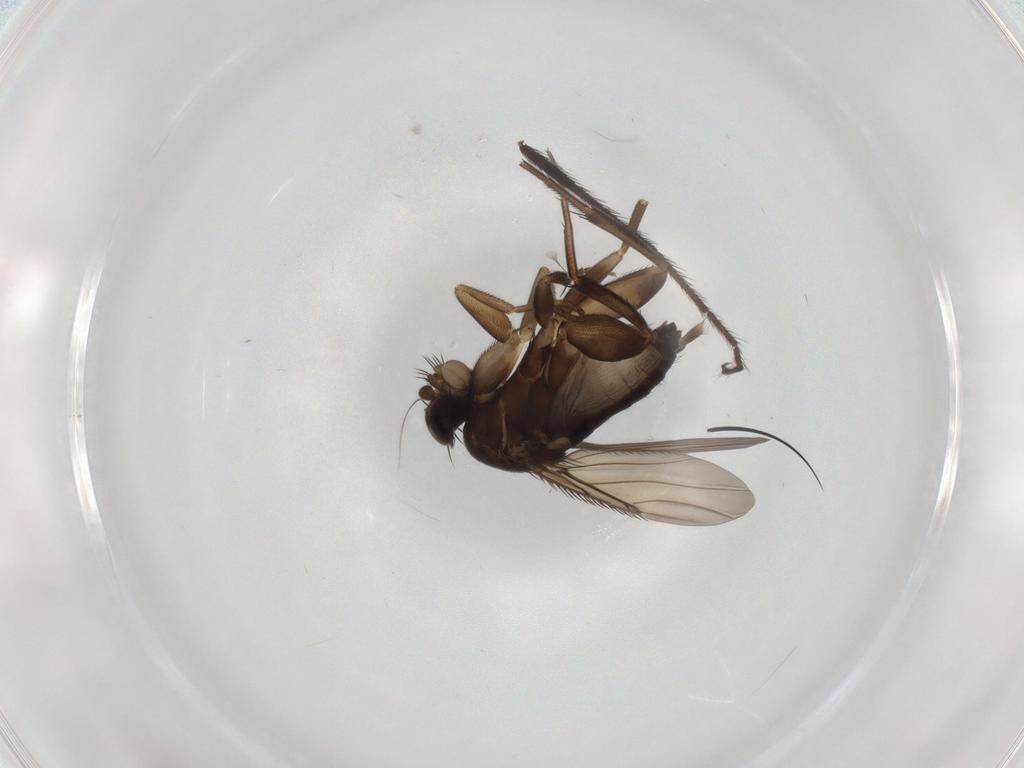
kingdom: Animalia
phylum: Arthropoda
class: Insecta
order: Diptera
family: Phoridae
